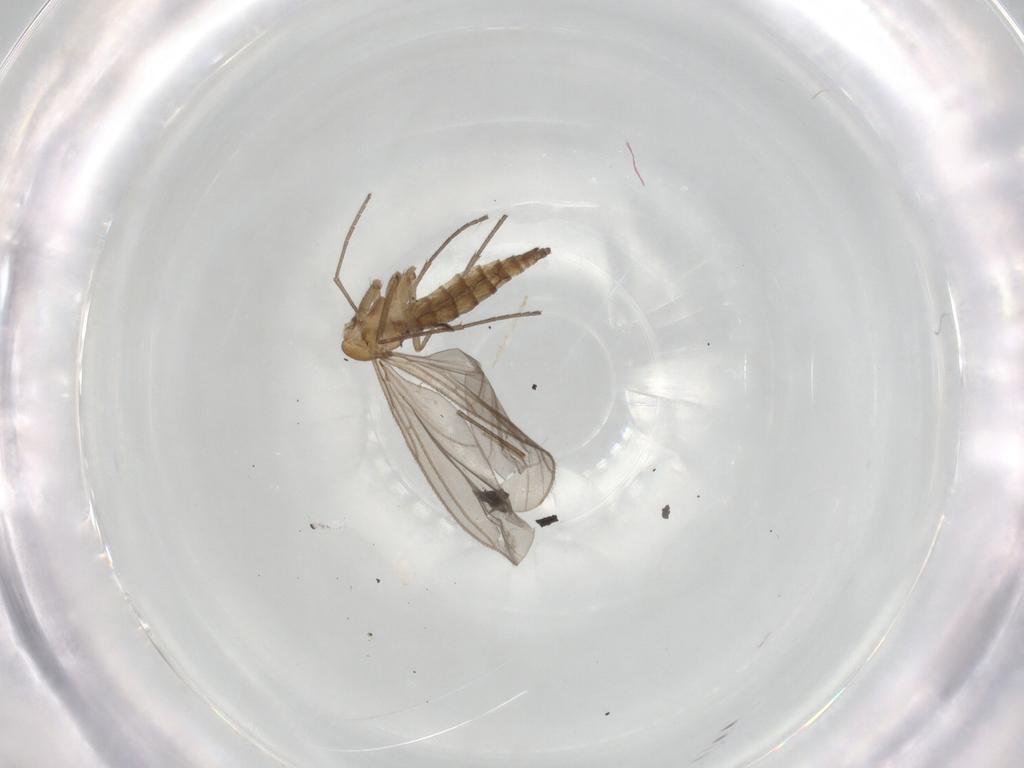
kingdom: Animalia
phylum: Arthropoda
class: Insecta
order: Diptera
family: Sciaridae
